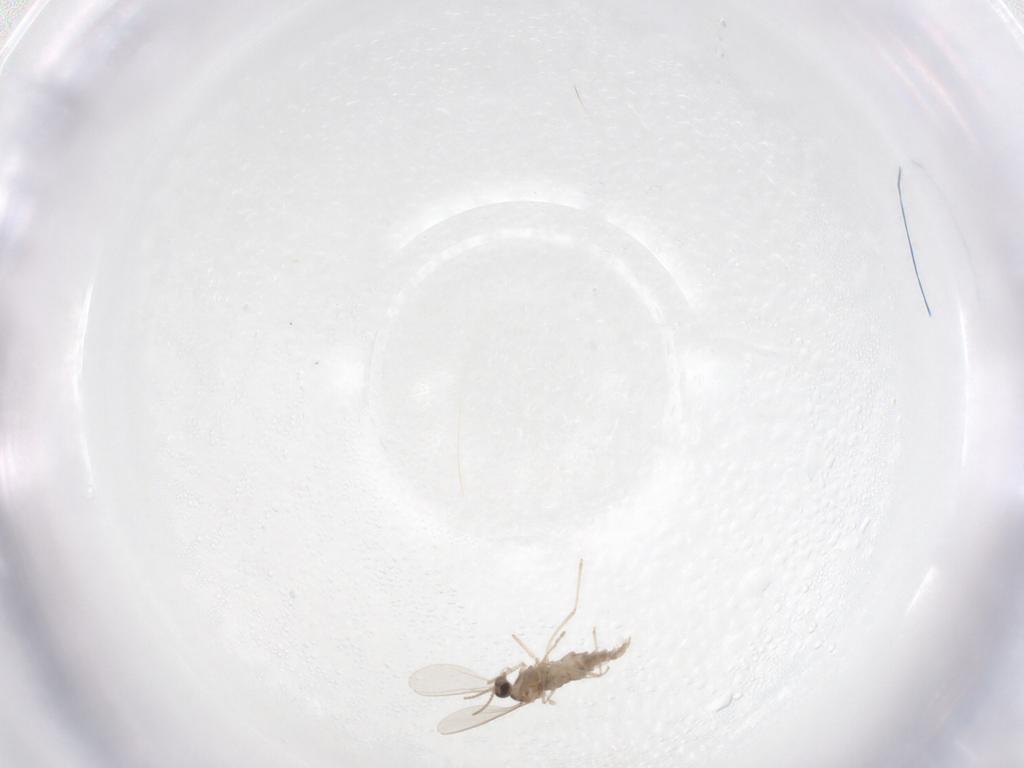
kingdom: Animalia
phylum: Arthropoda
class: Insecta
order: Diptera
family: Cecidomyiidae
